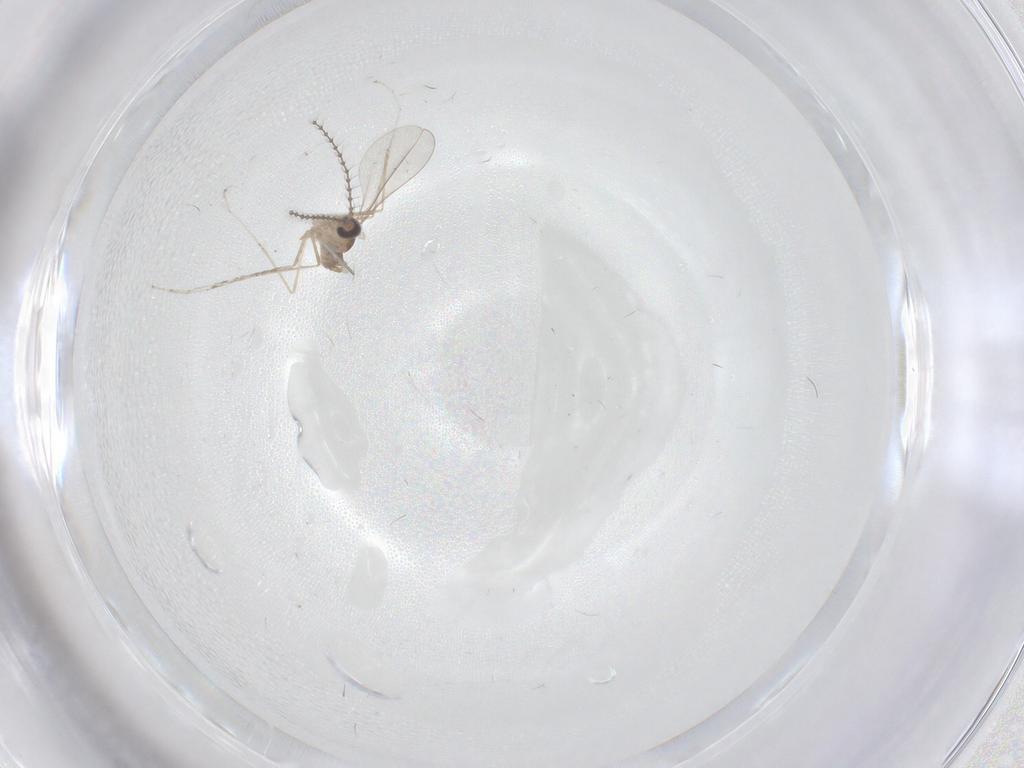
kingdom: Animalia
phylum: Arthropoda
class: Insecta
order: Diptera
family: Cecidomyiidae
